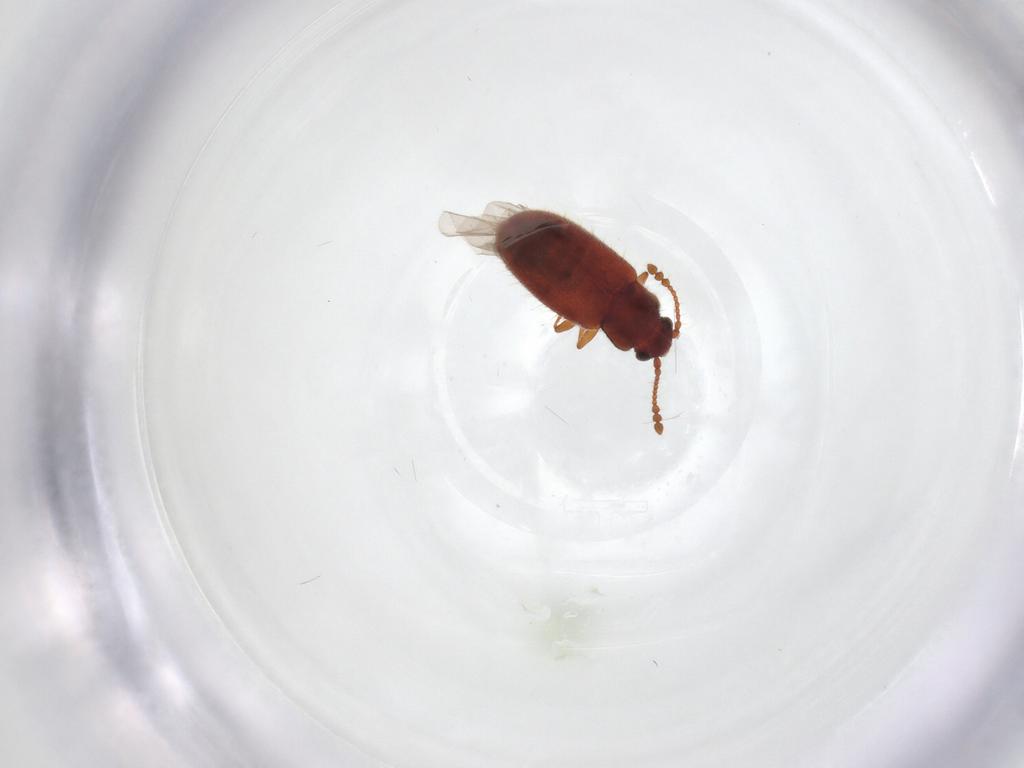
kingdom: Animalia
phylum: Arthropoda
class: Insecta
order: Coleoptera
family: Cryptophagidae
